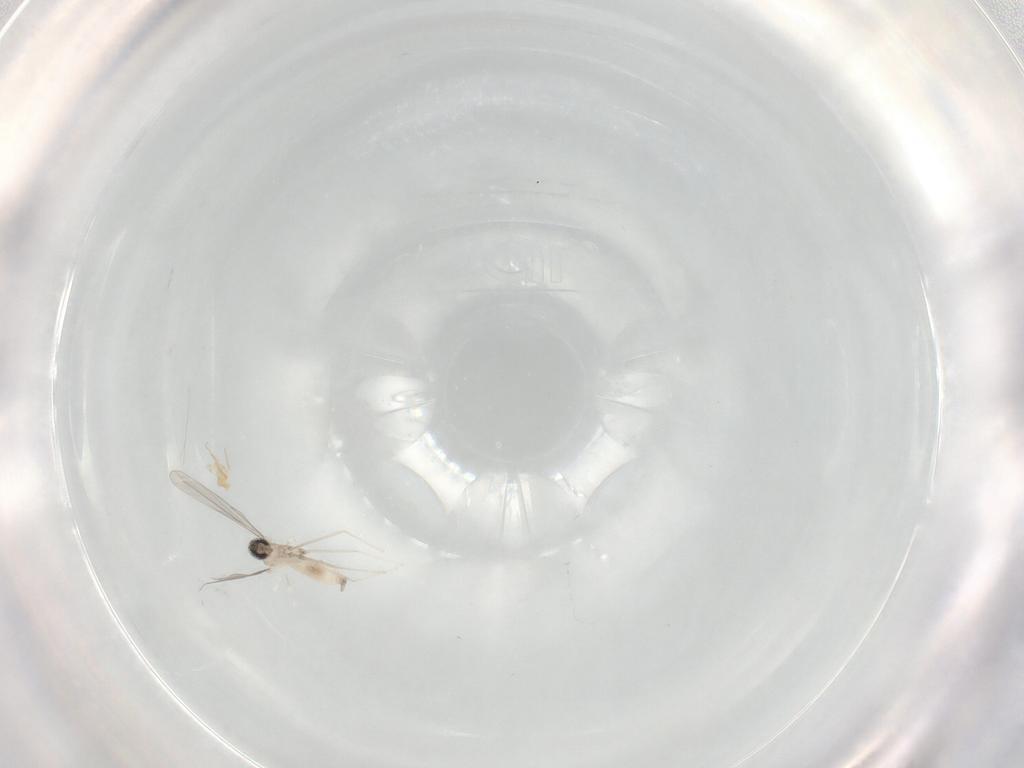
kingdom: Animalia
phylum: Arthropoda
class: Insecta
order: Diptera
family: Cecidomyiidae
